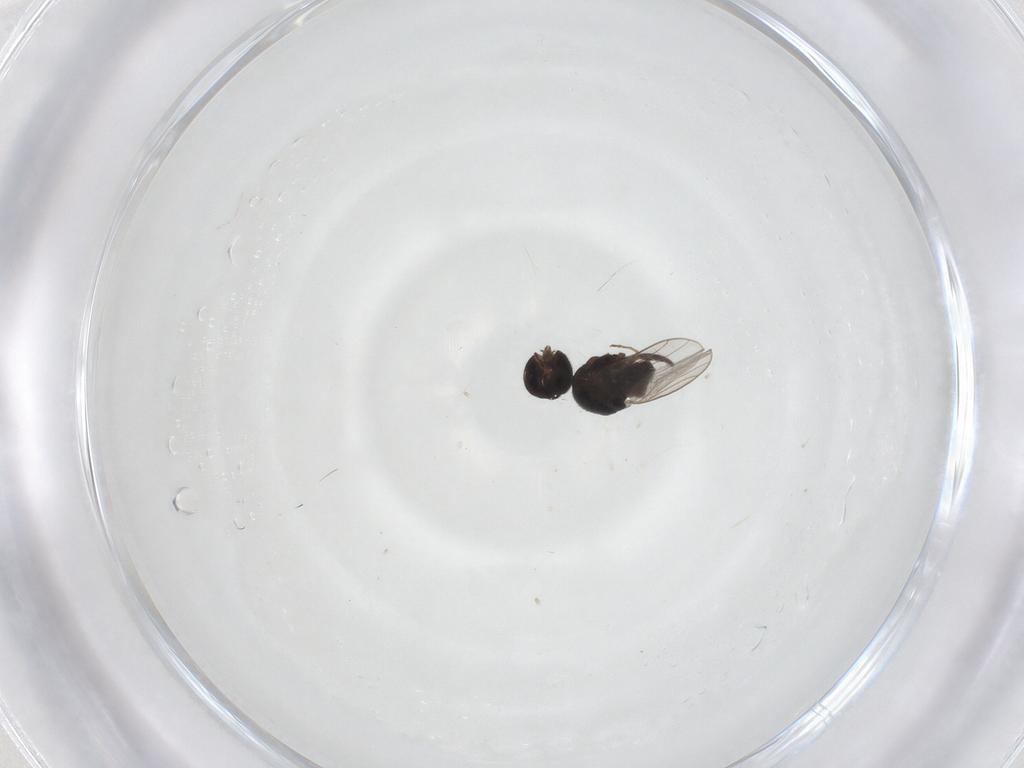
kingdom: Animalia
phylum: Arthropoda
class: Insecta
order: Diptera
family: Chloropidae
